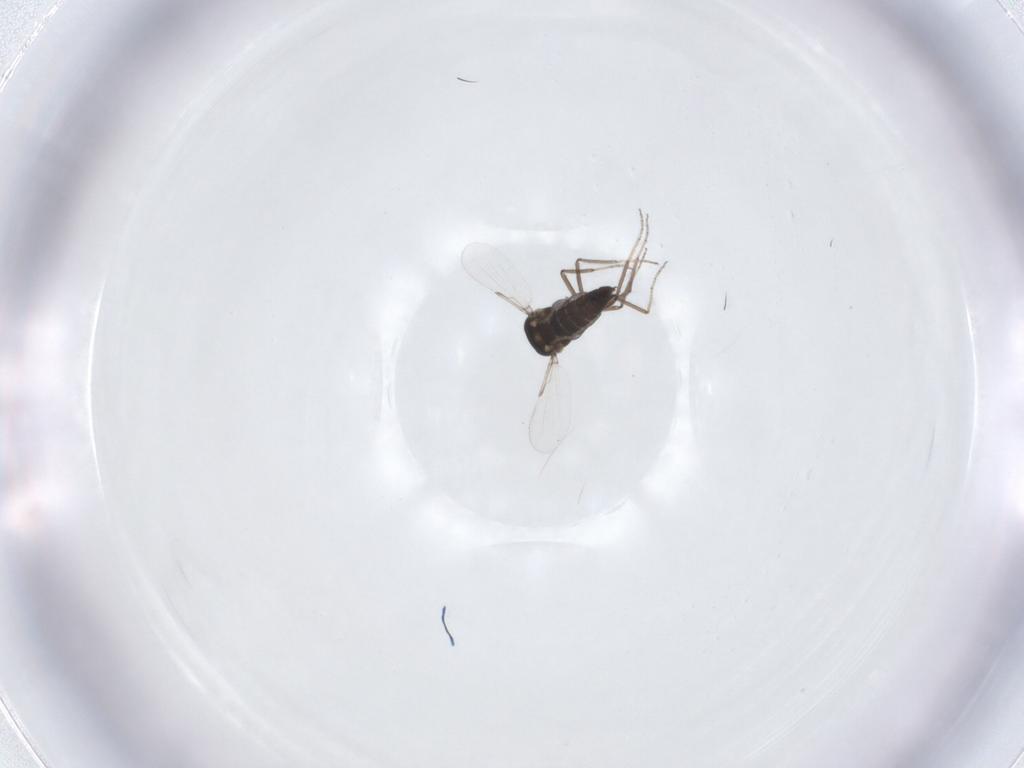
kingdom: Animalia
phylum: Arthropoda
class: Insecta
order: Diptera
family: Ceratopogonidae
